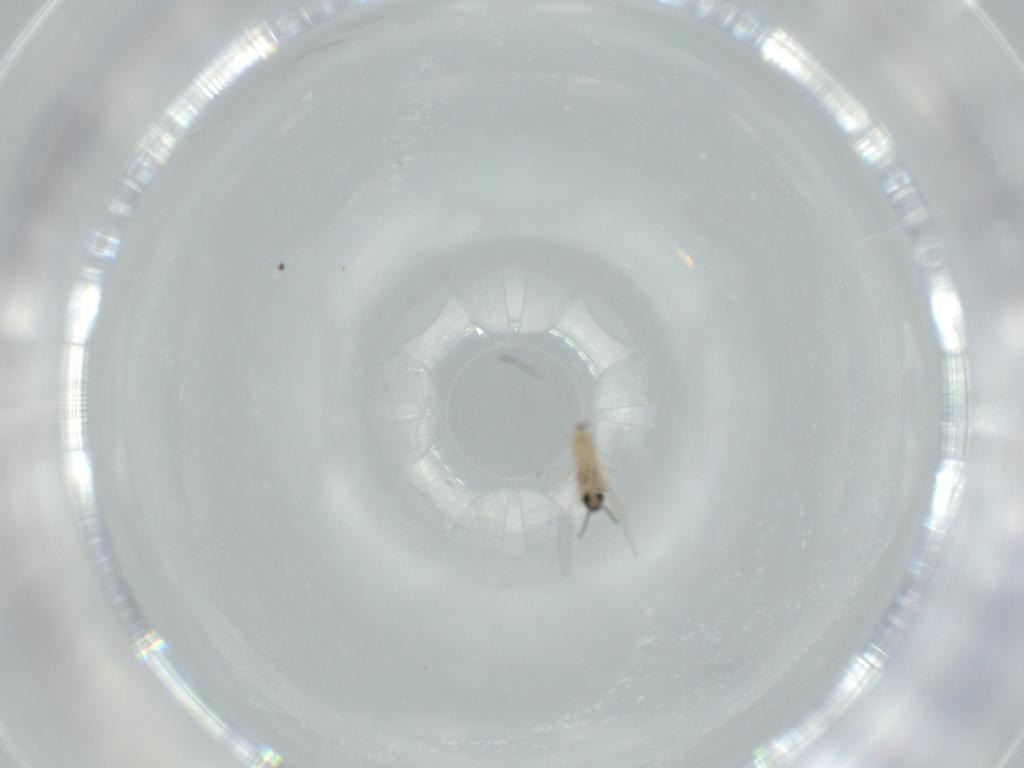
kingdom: Animalia
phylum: Arthropoda
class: Insecta
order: Diptera
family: Cecidomyiidae
